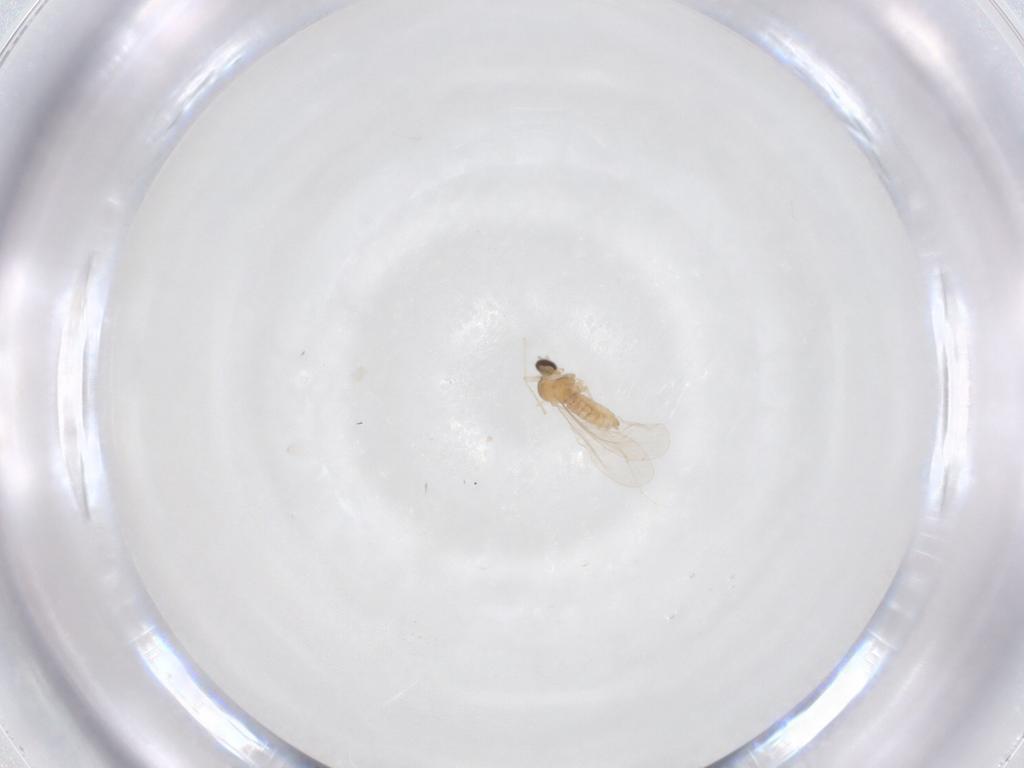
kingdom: Animalia
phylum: Arthropoda
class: Insecta
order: Diptera
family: Cecidomyiidae
